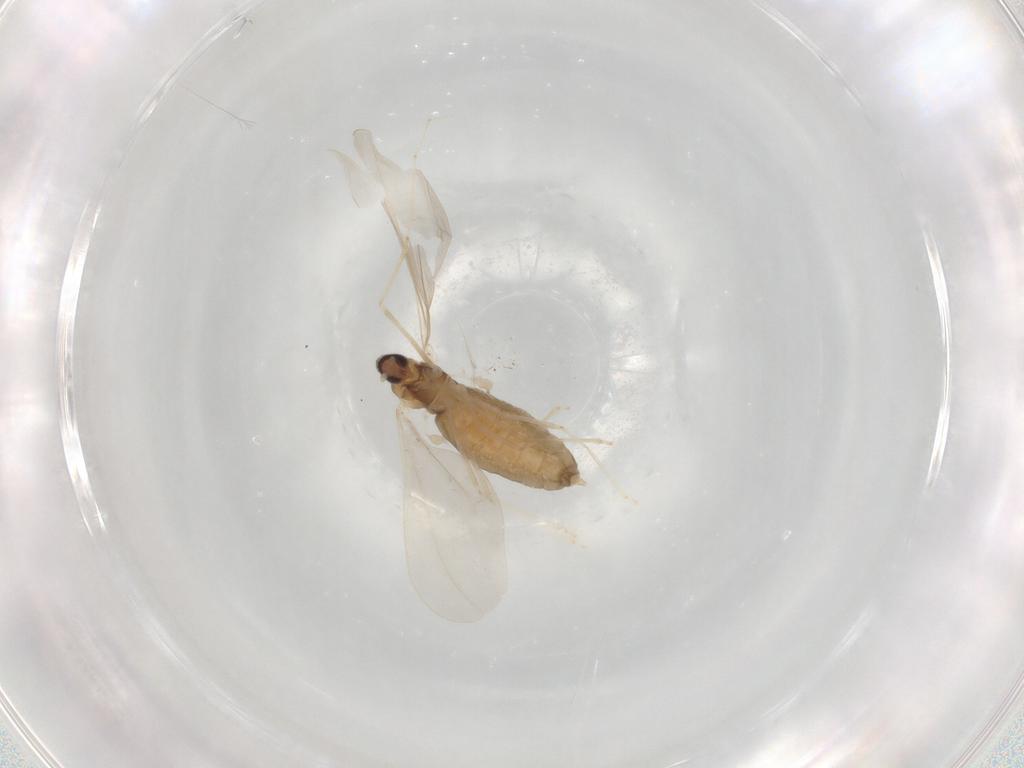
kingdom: Animalia
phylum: Arthropoda
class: Insecta
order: Diptera
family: Cecidomyiidae
